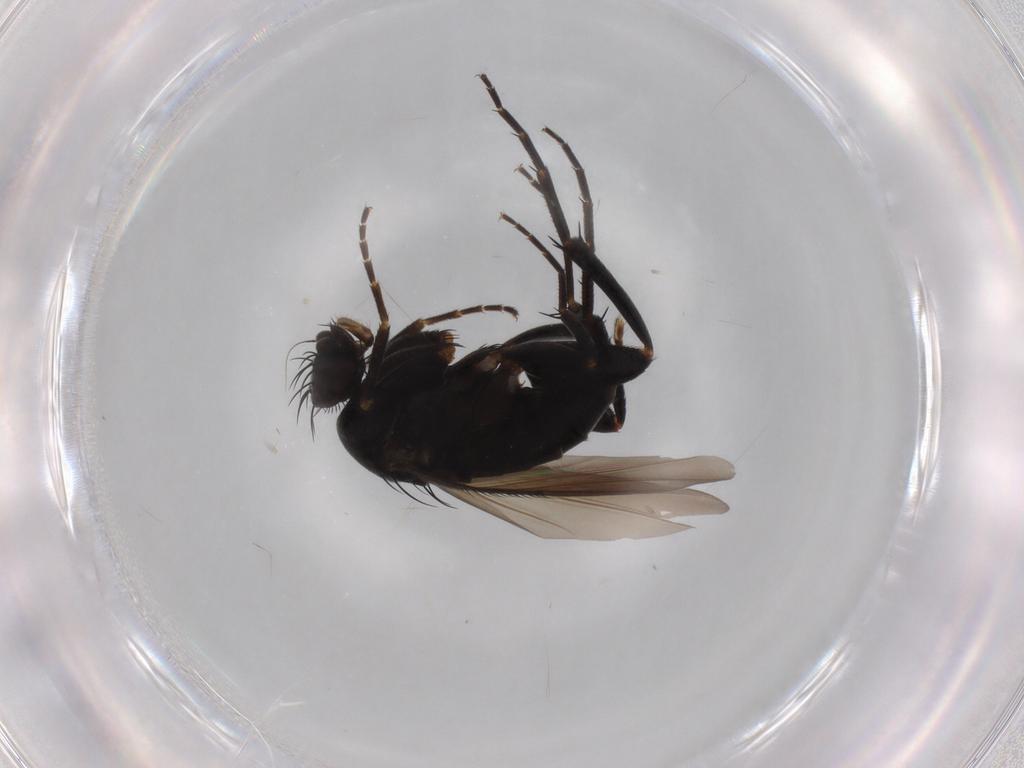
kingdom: Animalia
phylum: Arthropoda
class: Insecta
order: Diptera
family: Phoridae
